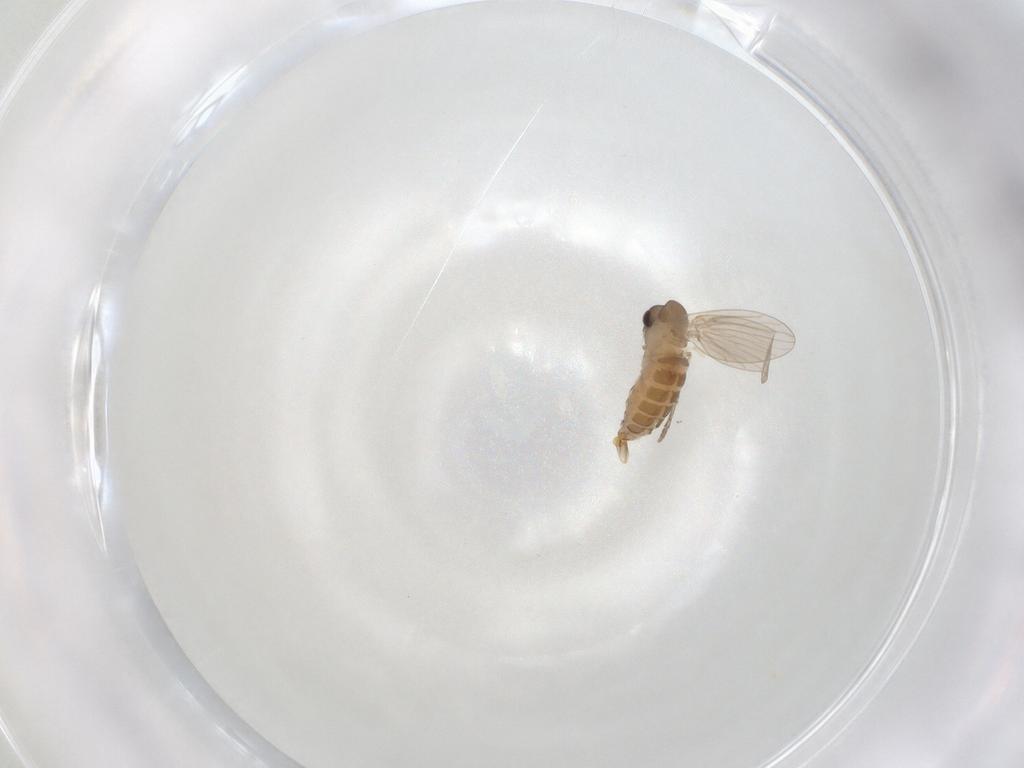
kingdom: Animalia
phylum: Arthropoda
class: Insecta
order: Diptera
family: Psychodidae
